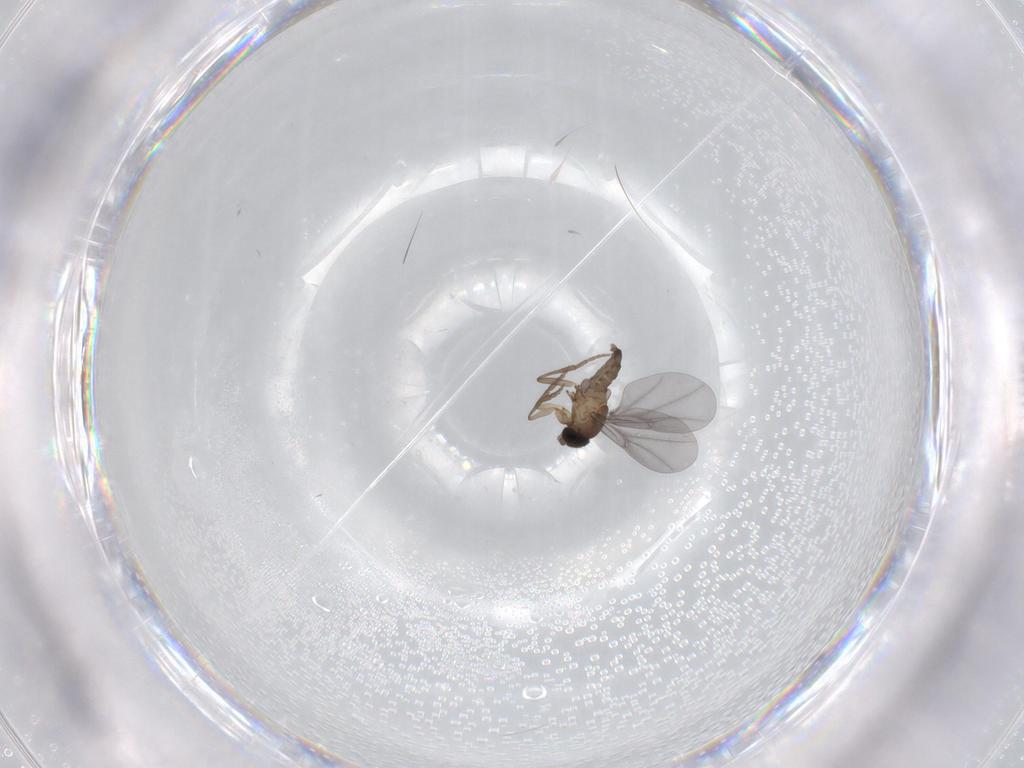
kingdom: Animalia
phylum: Arthropoda
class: Insecta
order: Diptera
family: Phoridae
